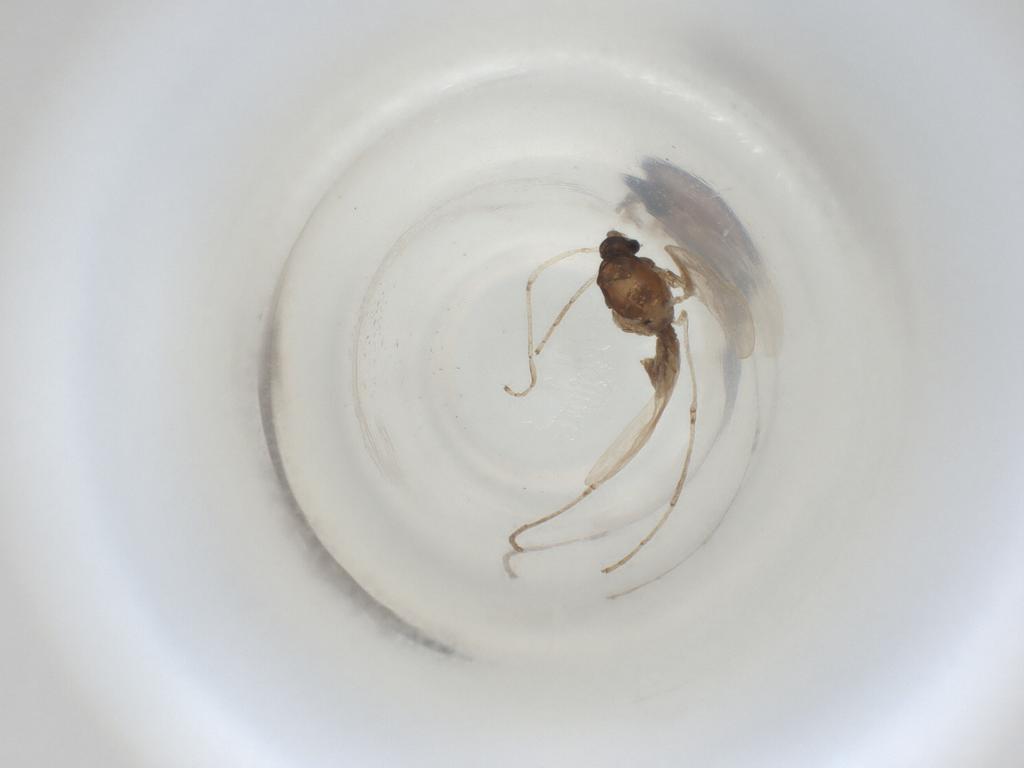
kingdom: Animalia
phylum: Arthropoda
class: Insecta
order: Diptera
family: Cecidomyiidae
